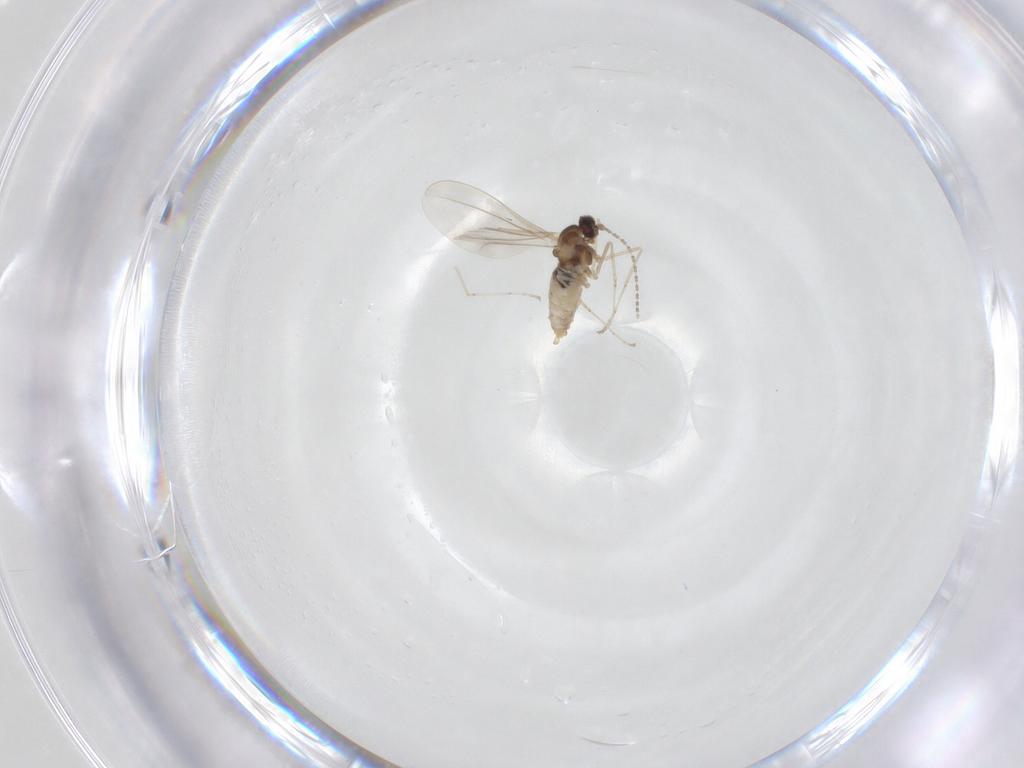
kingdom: Animalia
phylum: Arthropoda
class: Insecta
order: Diptera
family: Cecidomyiidae
